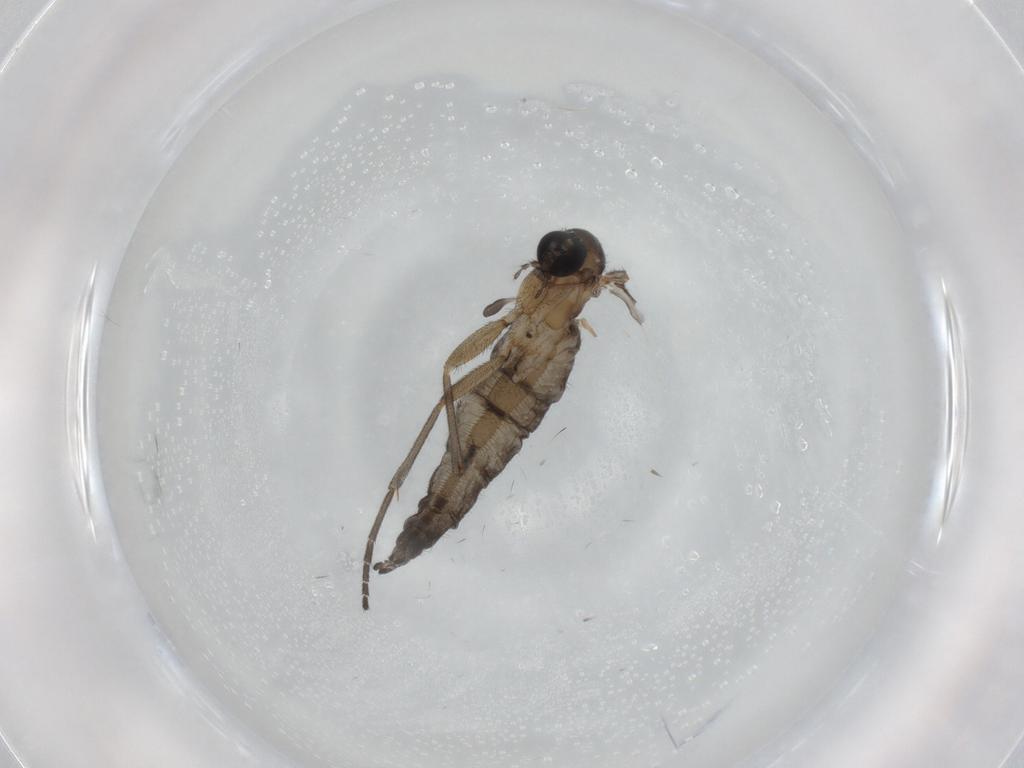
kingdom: Animalia
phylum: Arthropoda
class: Insecta
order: Diptera
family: Sciaridae
